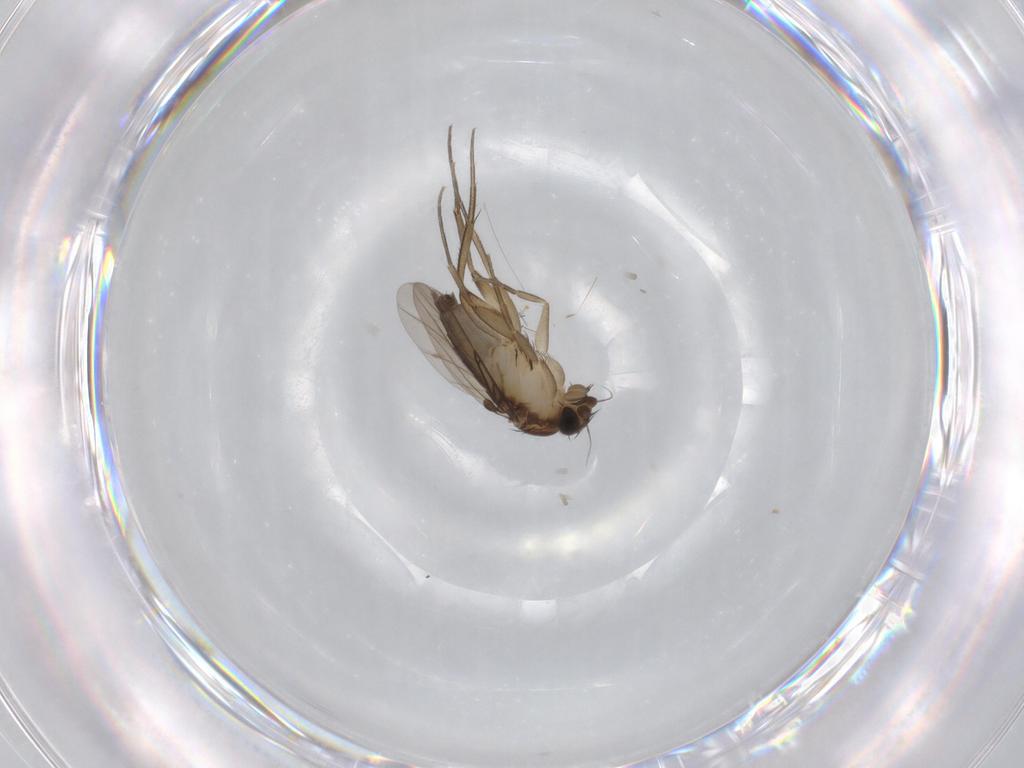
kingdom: Animalia
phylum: Arthropoda
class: Insecta
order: Diptera
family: Phoridae
